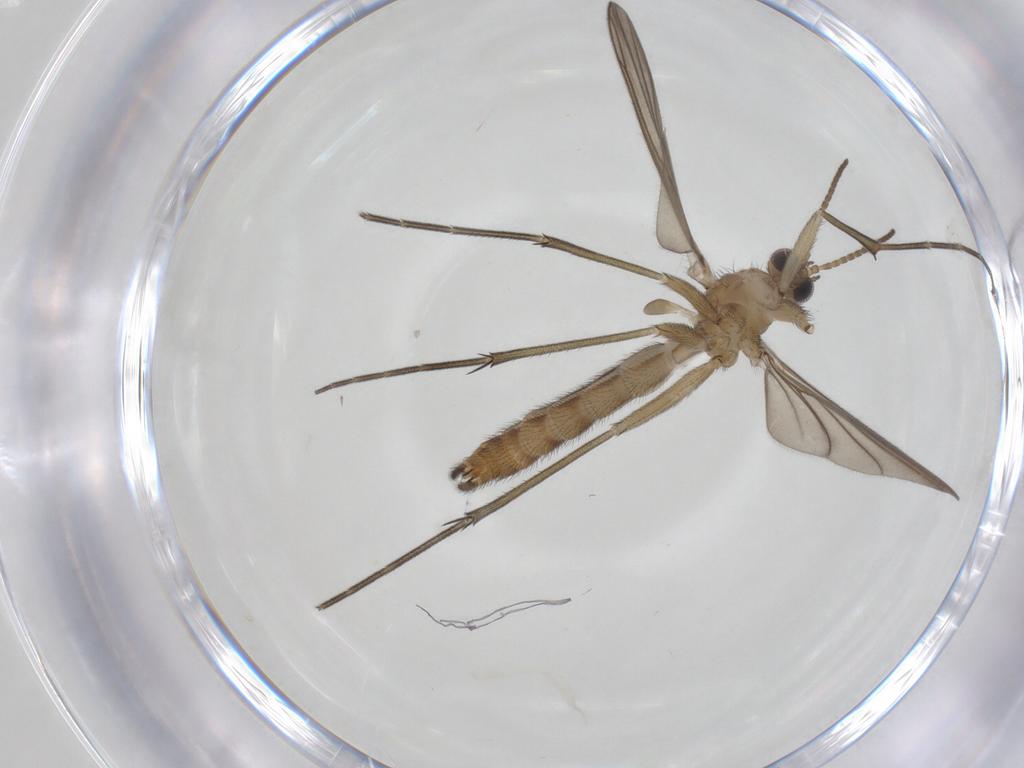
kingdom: Animalia
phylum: Arthropoda
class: Insecta
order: Diptera
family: Keroplatidae
